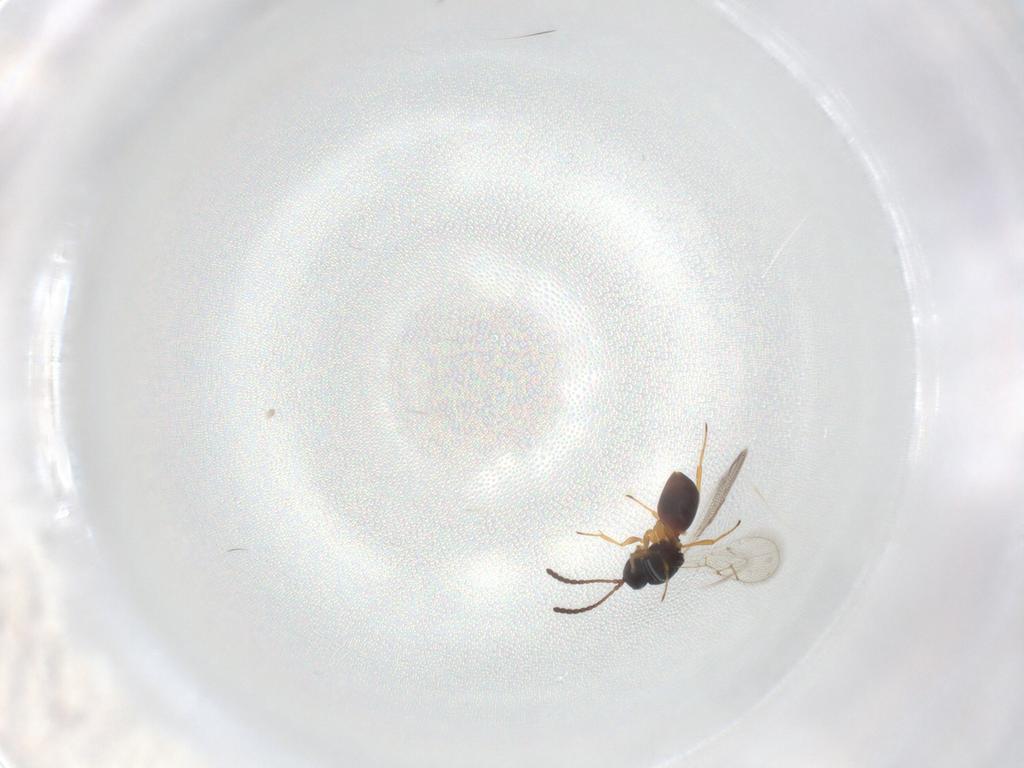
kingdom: Animalia
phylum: Arthropoda
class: Insecta
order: Hymenoptera
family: Figitidae
